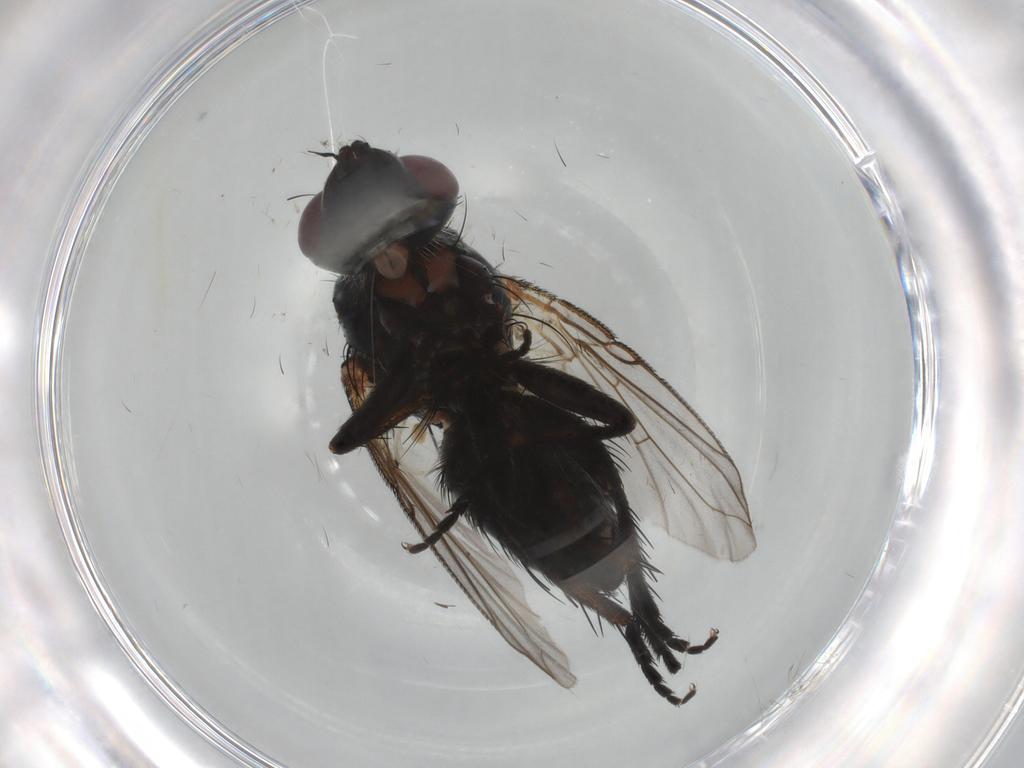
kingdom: Animalia
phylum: Arthropoda
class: Insecta
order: Diptera
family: Tachinidae
